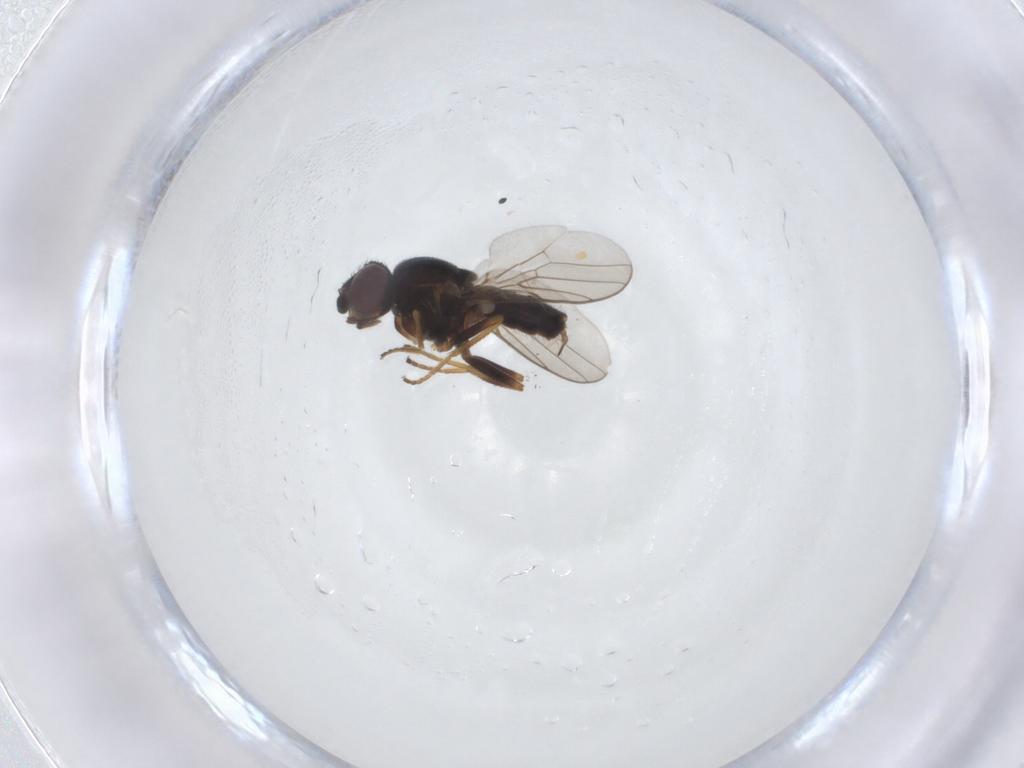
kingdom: Animalia
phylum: Arthropoda
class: Insecta
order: Diptera
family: Chloropidae
